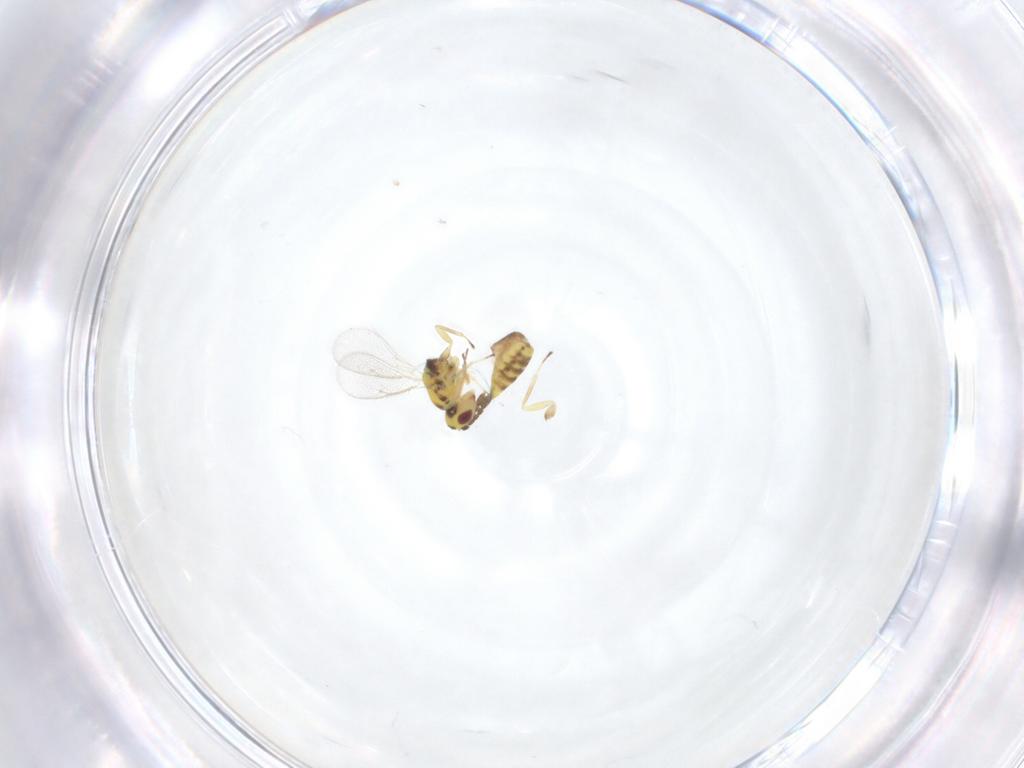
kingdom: Animalia
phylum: Arthropoda
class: Insecta
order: Hymenoptera
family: Eulophidae
